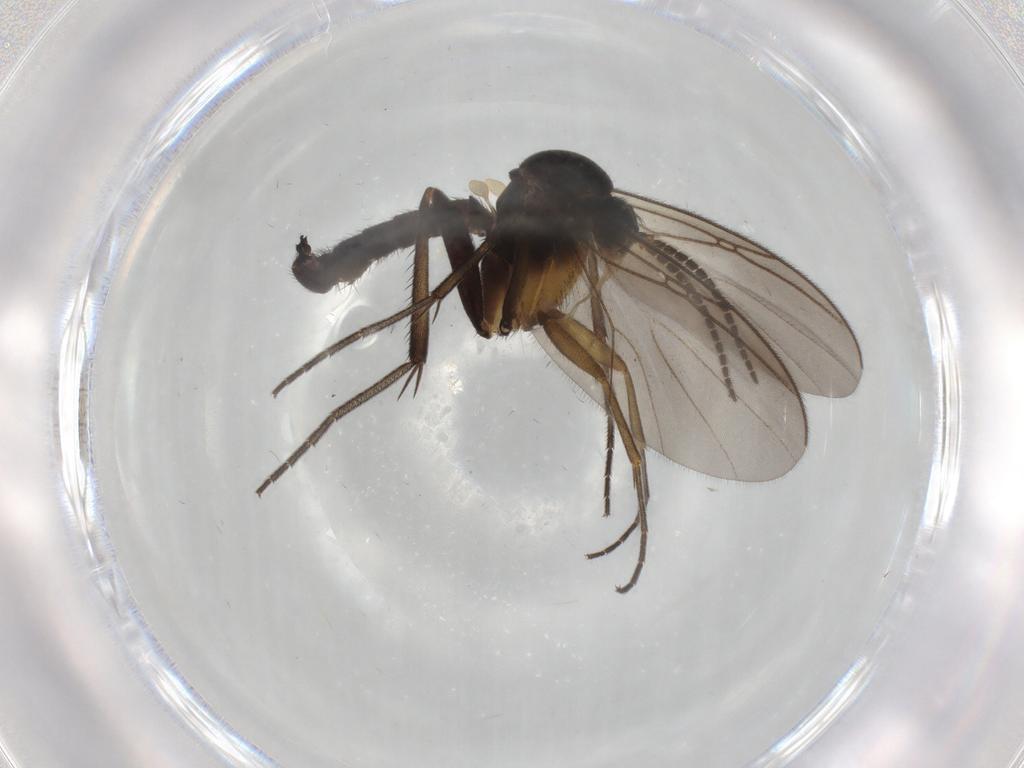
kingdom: Animalia
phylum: Arthropoda
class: Insecta
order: Diptera
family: Mycetophilidae
